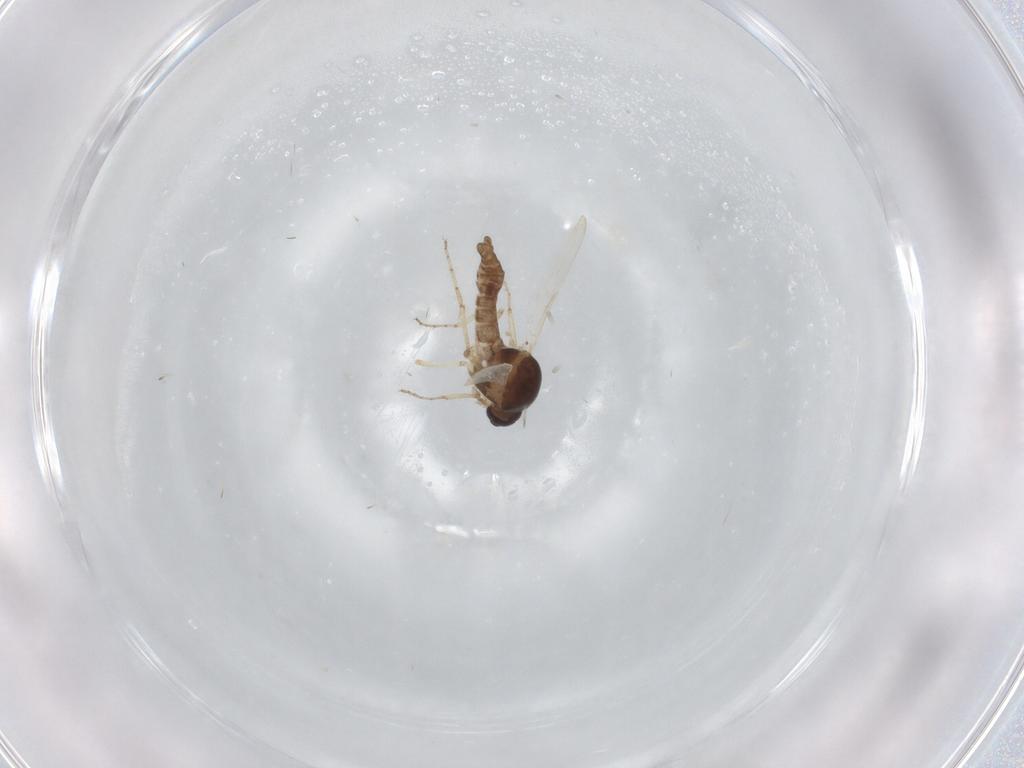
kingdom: Animalia
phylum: Arthropoda
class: Insecta
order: Diptera
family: Ceratopogonidae
